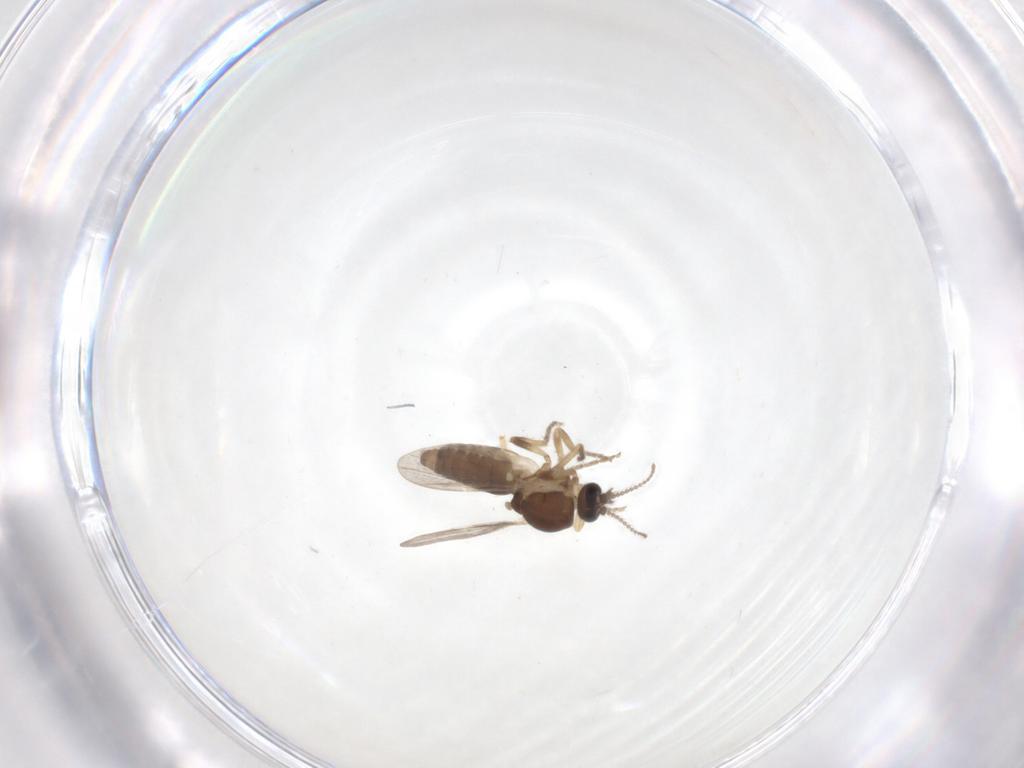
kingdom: Animalia
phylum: Arthropoda
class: Insecta
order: Diptera
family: Ceratopogonidae
